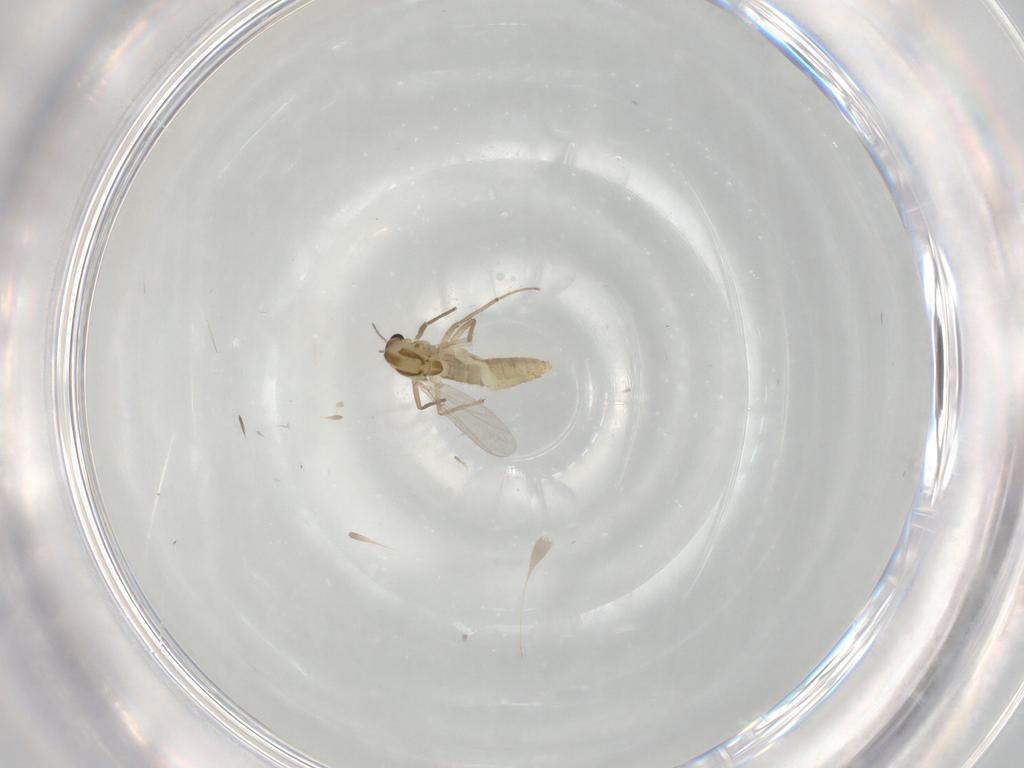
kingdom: Animalia
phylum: Arthropoda
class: Insecta
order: Diptera
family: Chironomidae
